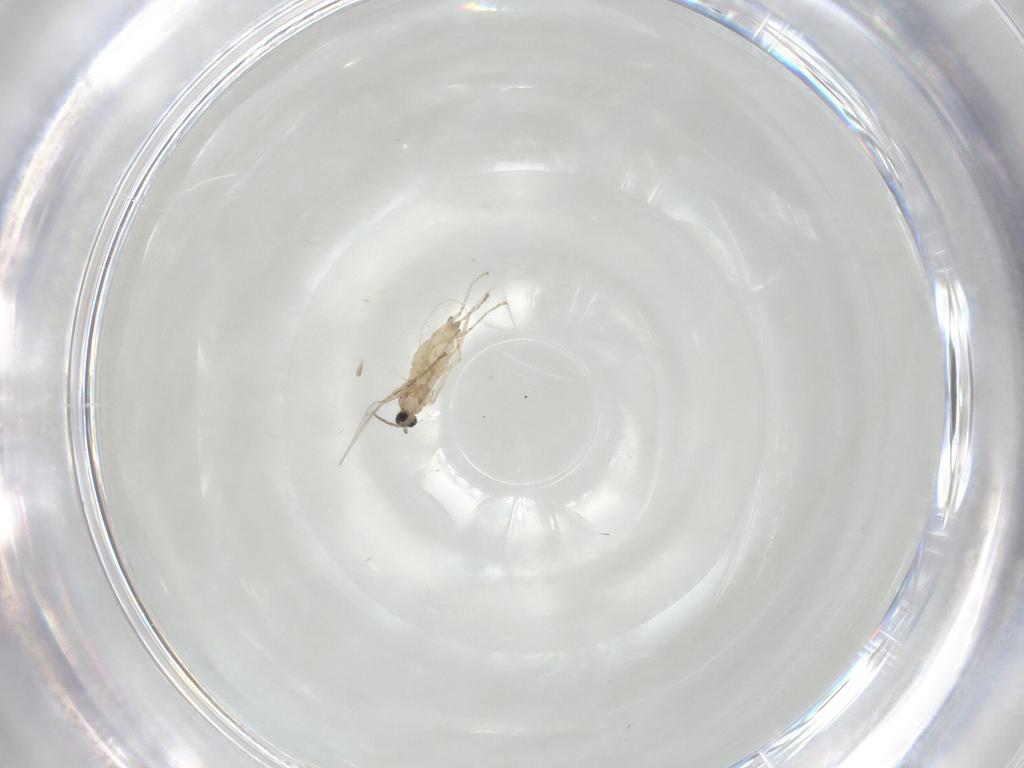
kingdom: Animalia
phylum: Arthropoda
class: Insecta
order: Diptera
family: Cecidomyiidae
